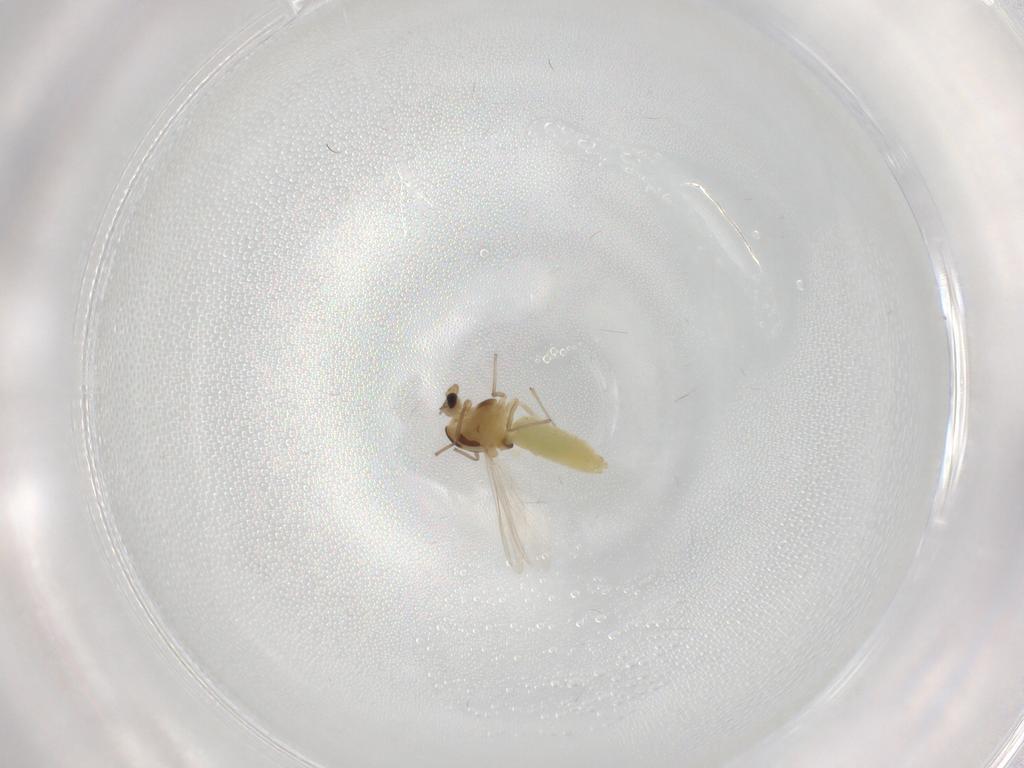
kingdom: Animalia
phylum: Arthropoda
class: Insecta
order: Diptera
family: Chironomidae
